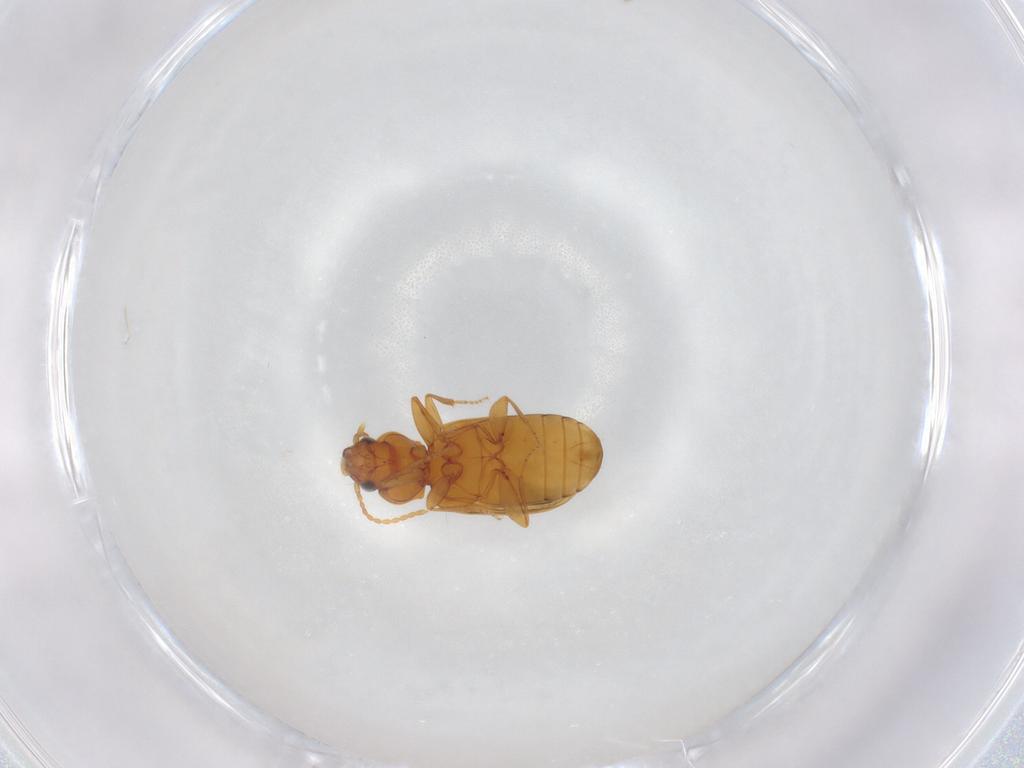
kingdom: Animalia
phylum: Arthropoda
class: Insecta
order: Coleoptera
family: Carabidae
